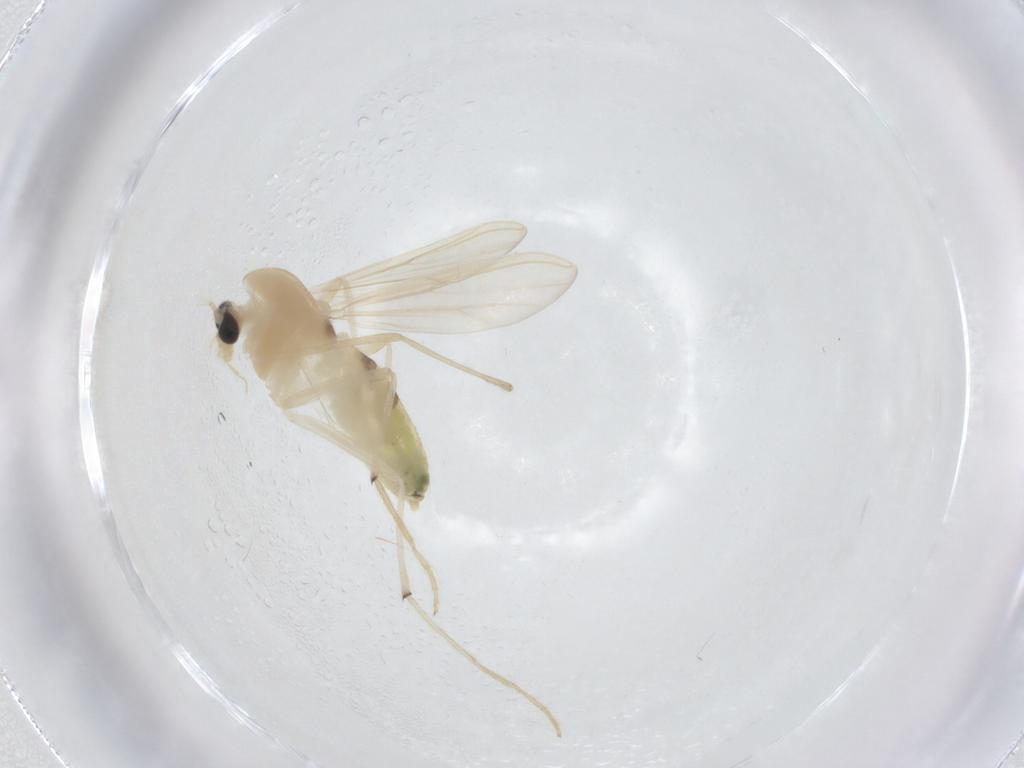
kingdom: Animalia
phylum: Arthropoda
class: Insecta
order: Diptera
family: Chironomidae
